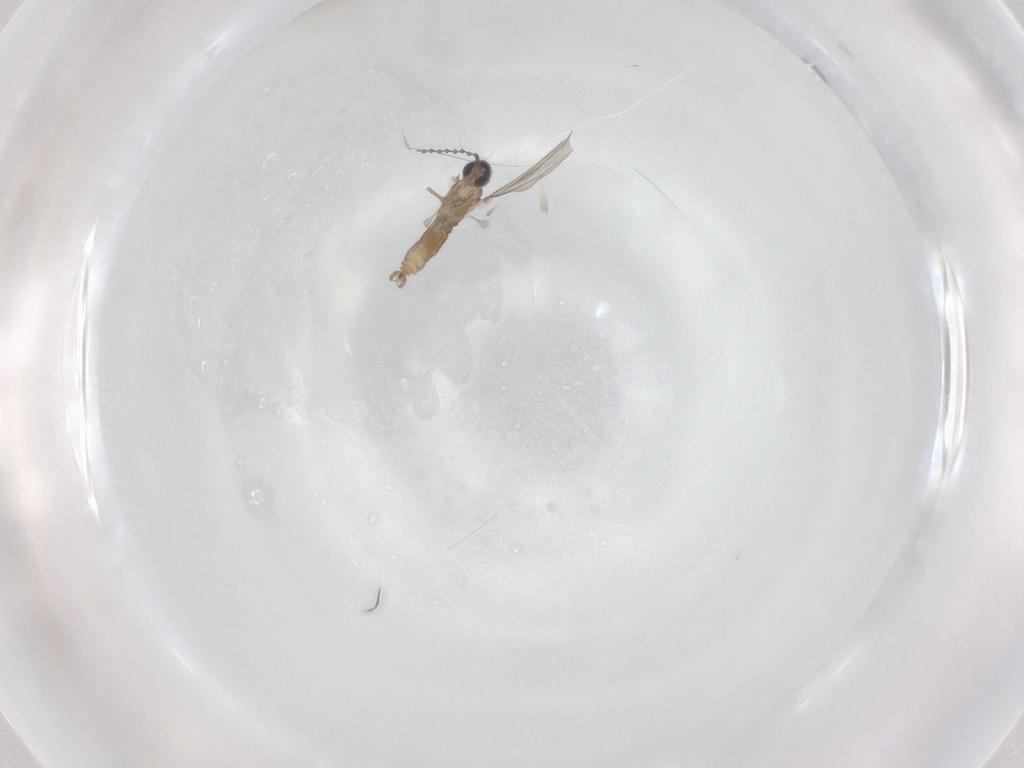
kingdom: Animalia
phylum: Arthropoda
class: Insecta
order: Diptera
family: Cecidomyiidae
